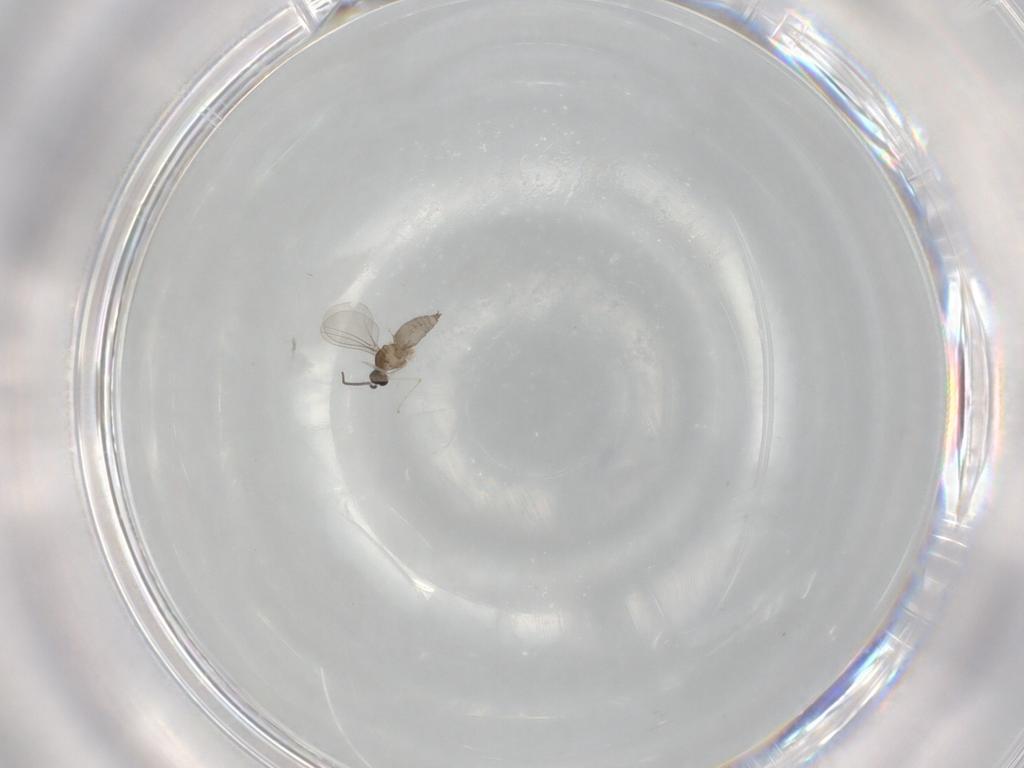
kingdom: Animalia
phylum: Arthropoda
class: Insecta
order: Diptera
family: Cecidomyiidae
